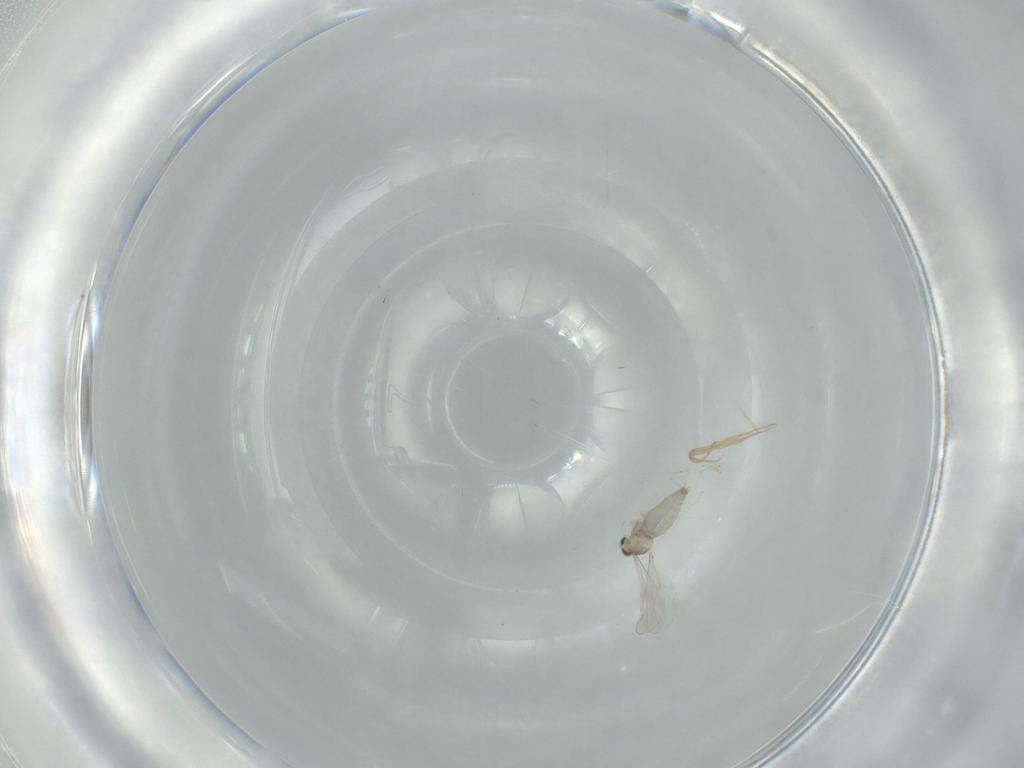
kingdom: Animalia
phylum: Arthropoda
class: Insecta
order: Diptera
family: Cecidomyiidae
